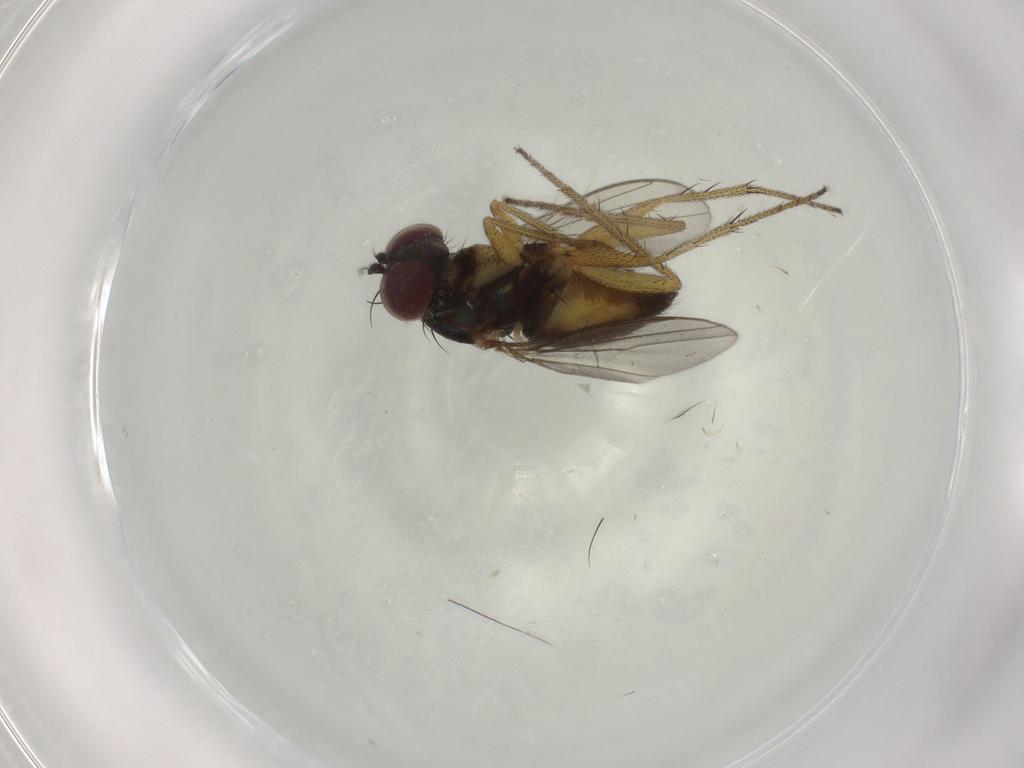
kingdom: Animalia
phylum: Arthropoda
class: Insecta
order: Diptera
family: Dolichopodidae
